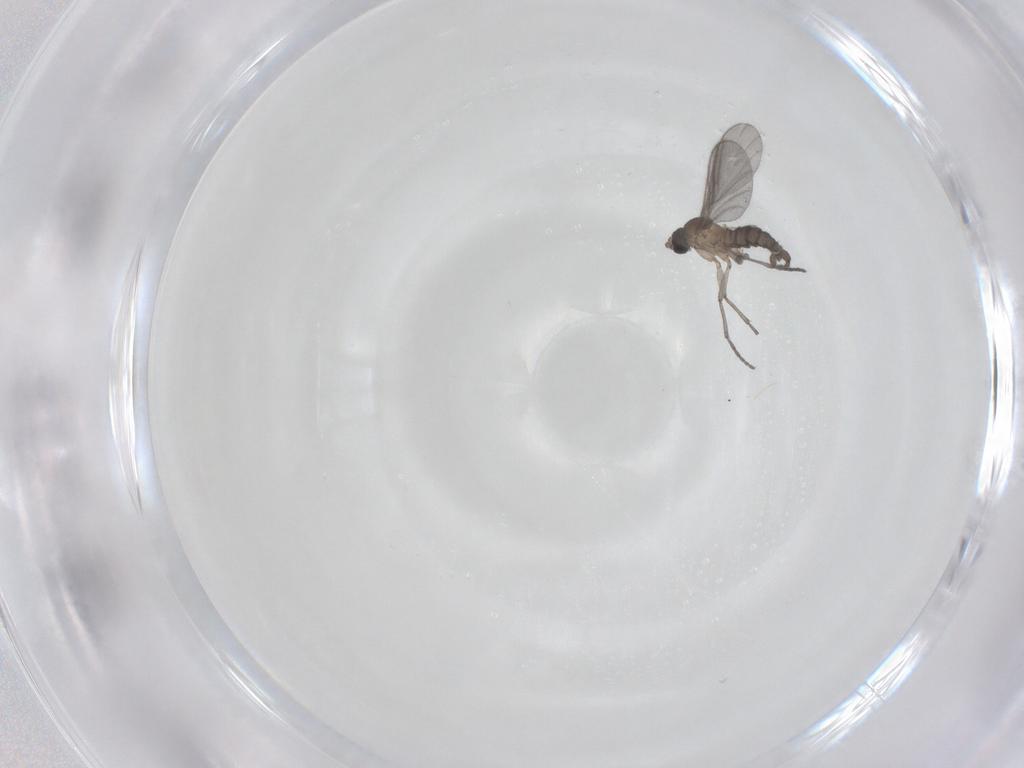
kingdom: Animalia
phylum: Arthropoda
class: Insecta
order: Diptera
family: Sciaridae
